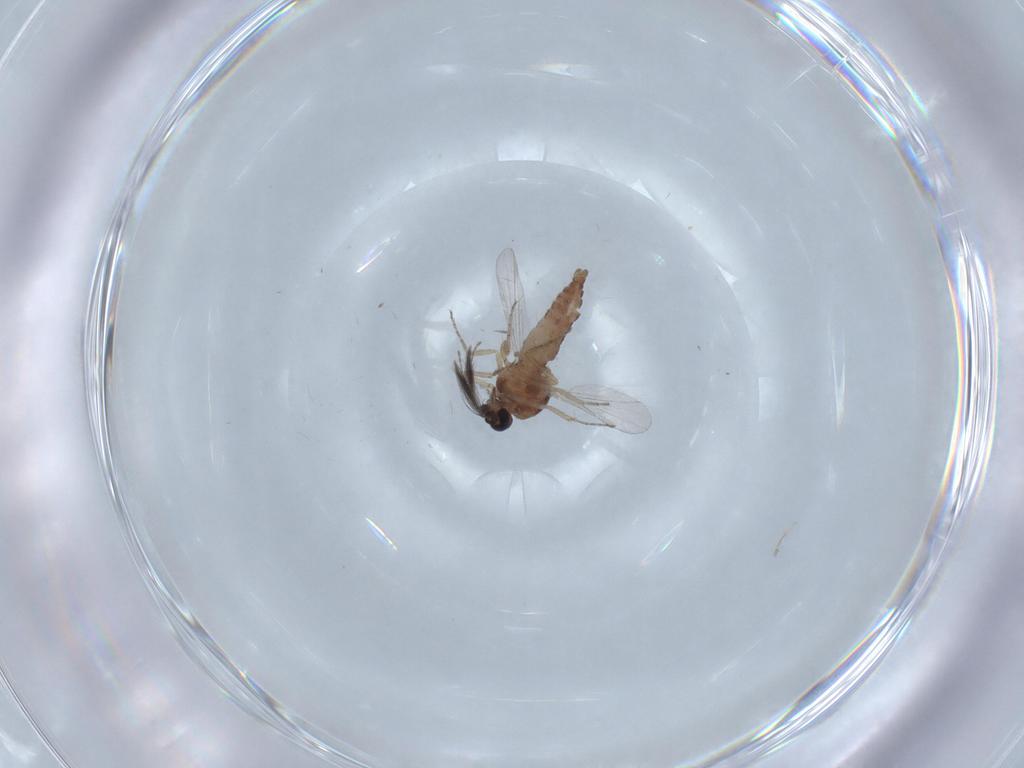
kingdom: Animalia
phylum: Arthropoda
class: Insecta
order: Diptera
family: Ceratopogonidae
